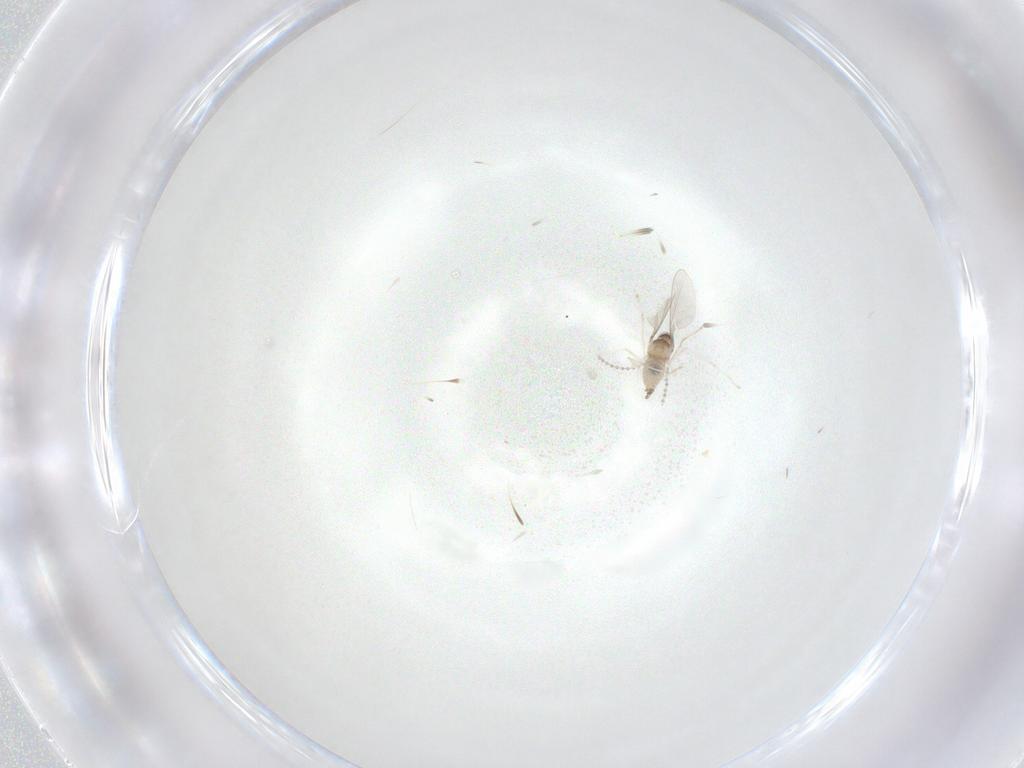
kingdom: Animalia
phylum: Arthropoda
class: Insecta
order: Diptera
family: Mycetophilidae
